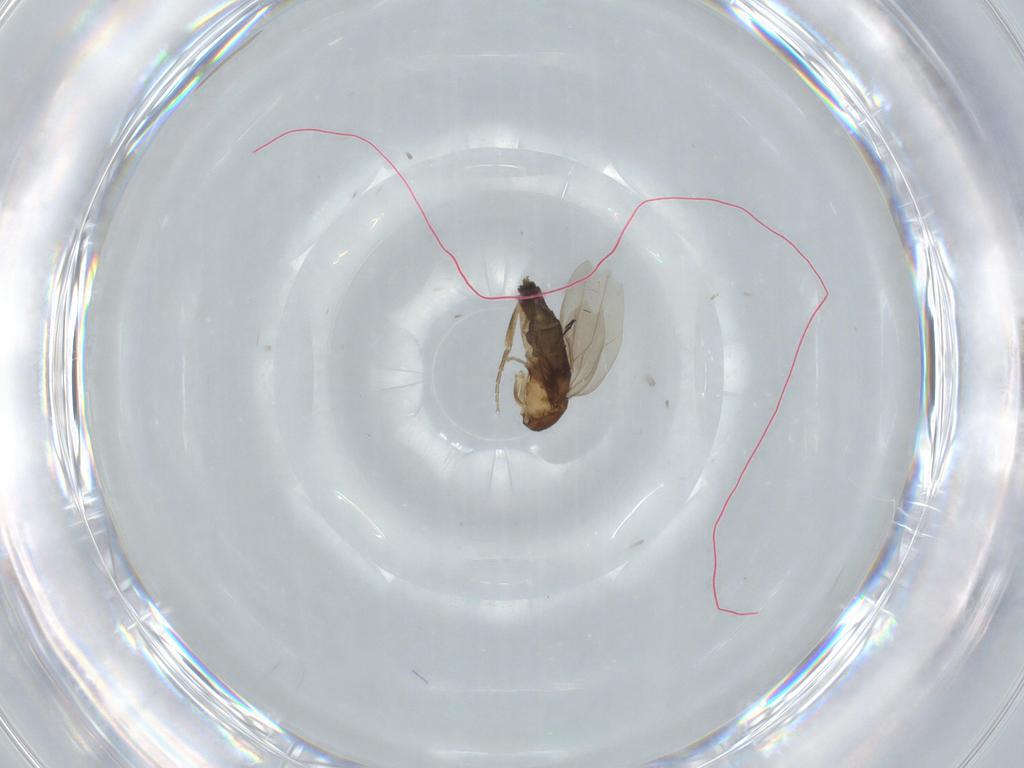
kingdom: Animalia
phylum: Arthropoda
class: Insecta
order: Diptera
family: Phoridae
